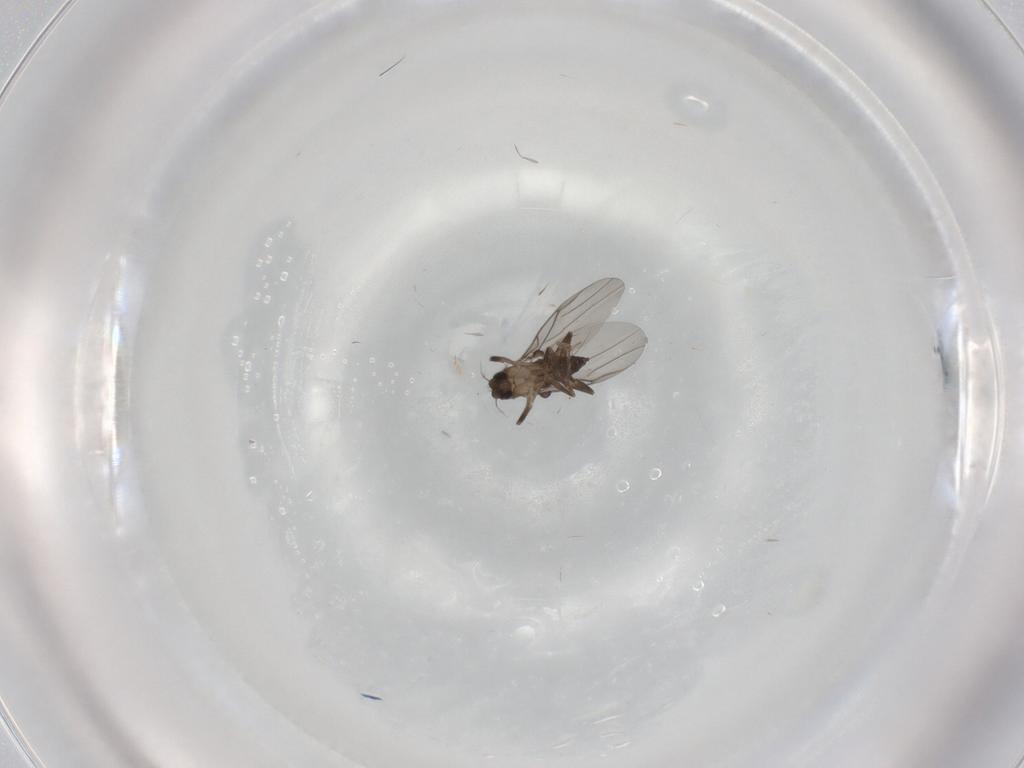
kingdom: Animalia
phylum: Arthropoda
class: Insecta
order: Diptera
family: Phoridae
